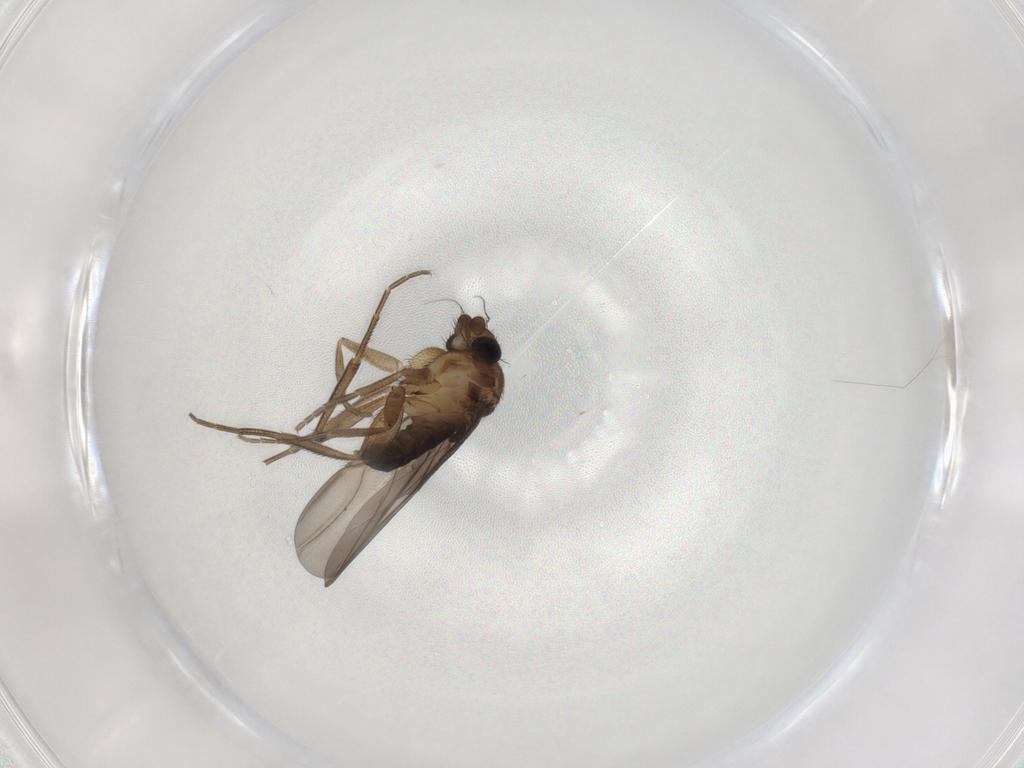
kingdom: Animalia
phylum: Arthropoda
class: Insecta
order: Diptera
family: Phoridae
